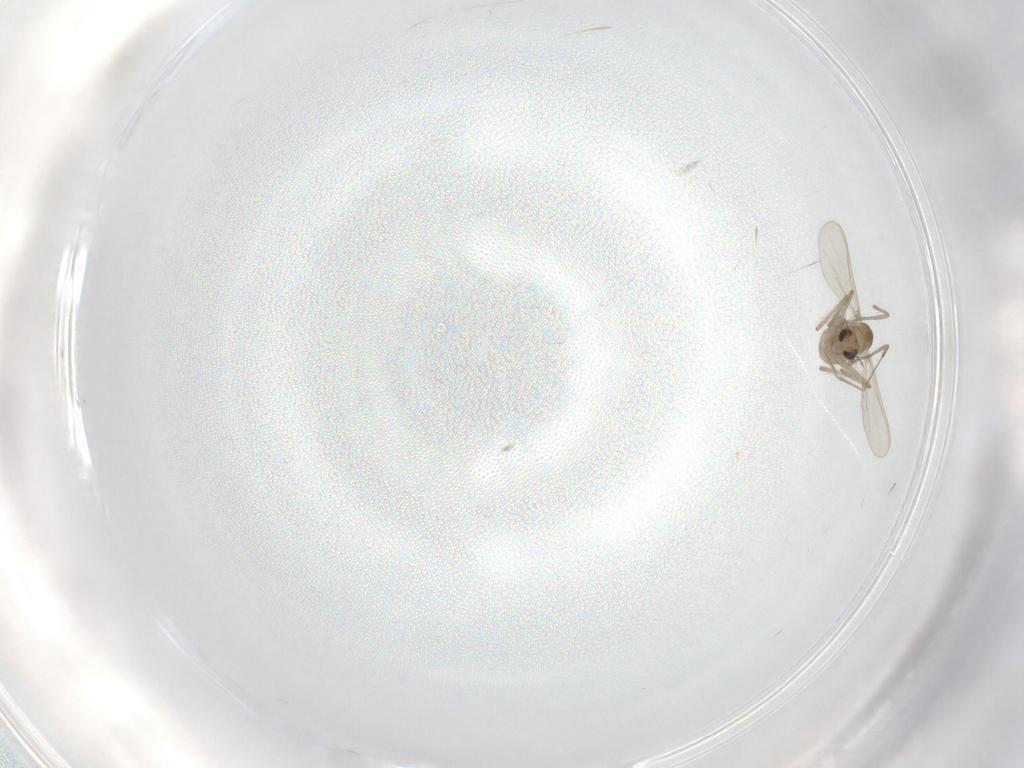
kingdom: Animalia
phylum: Arthropoda
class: Insecta
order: Diptera
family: Chironomidae
